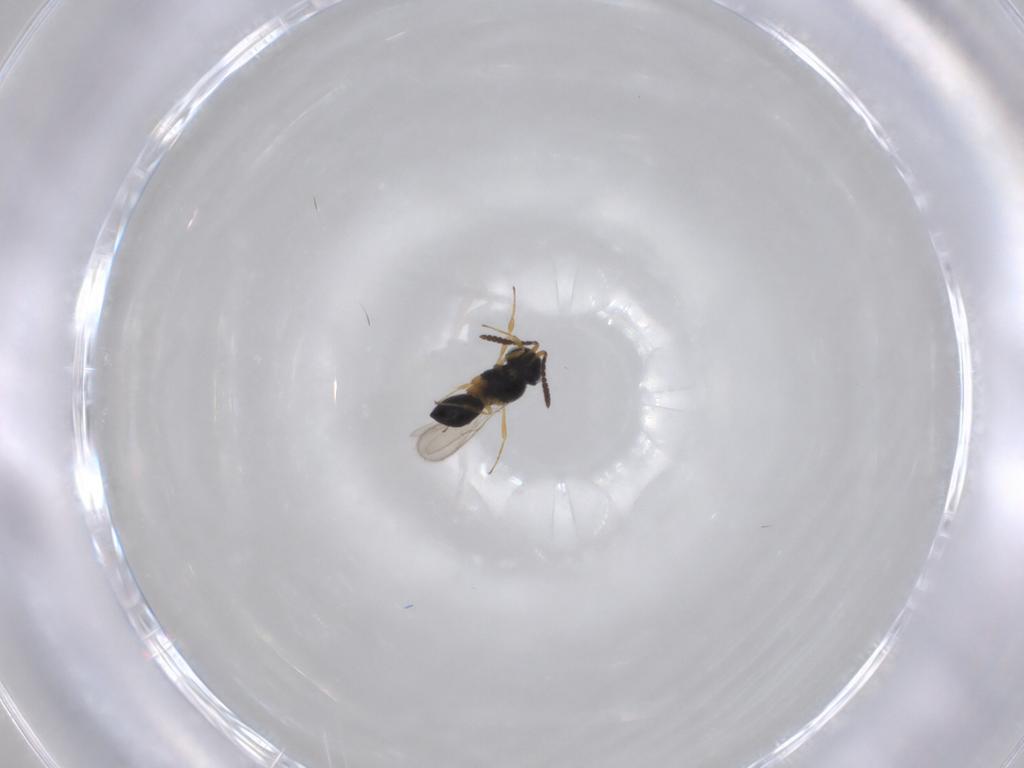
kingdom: Animalia
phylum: Arthropoda
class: Insecta
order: Hymenoptera
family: Scelionidae
